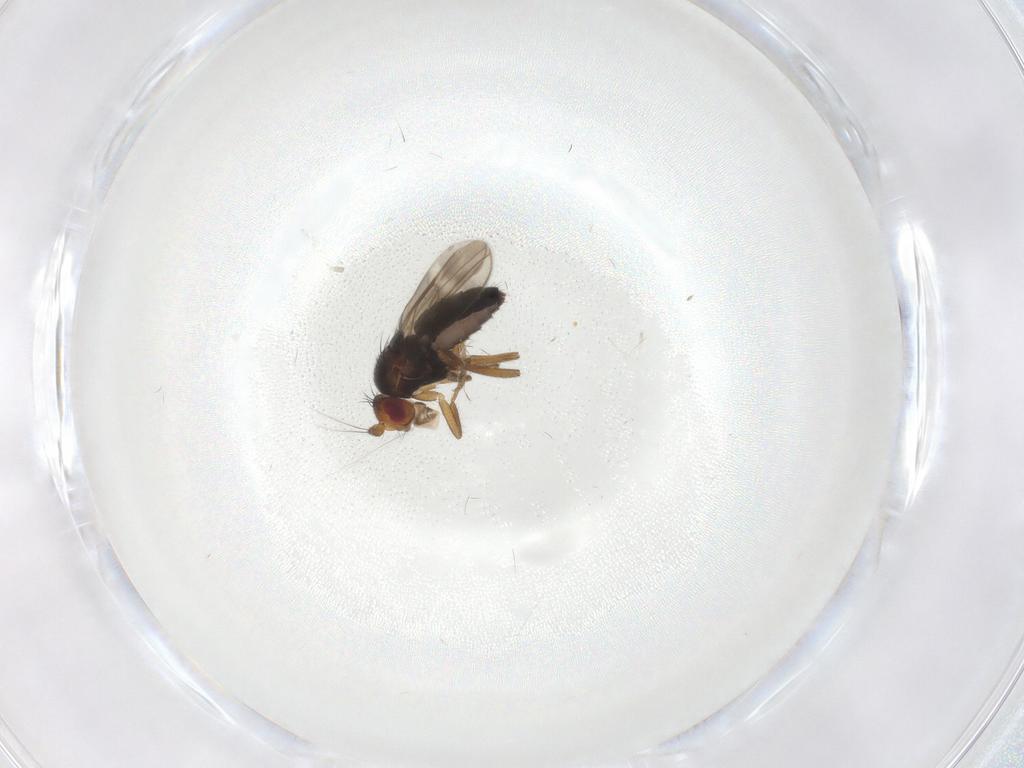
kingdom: Animalia
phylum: Arthropoda
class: Insecta
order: Diptera
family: Sphaeroceridae
